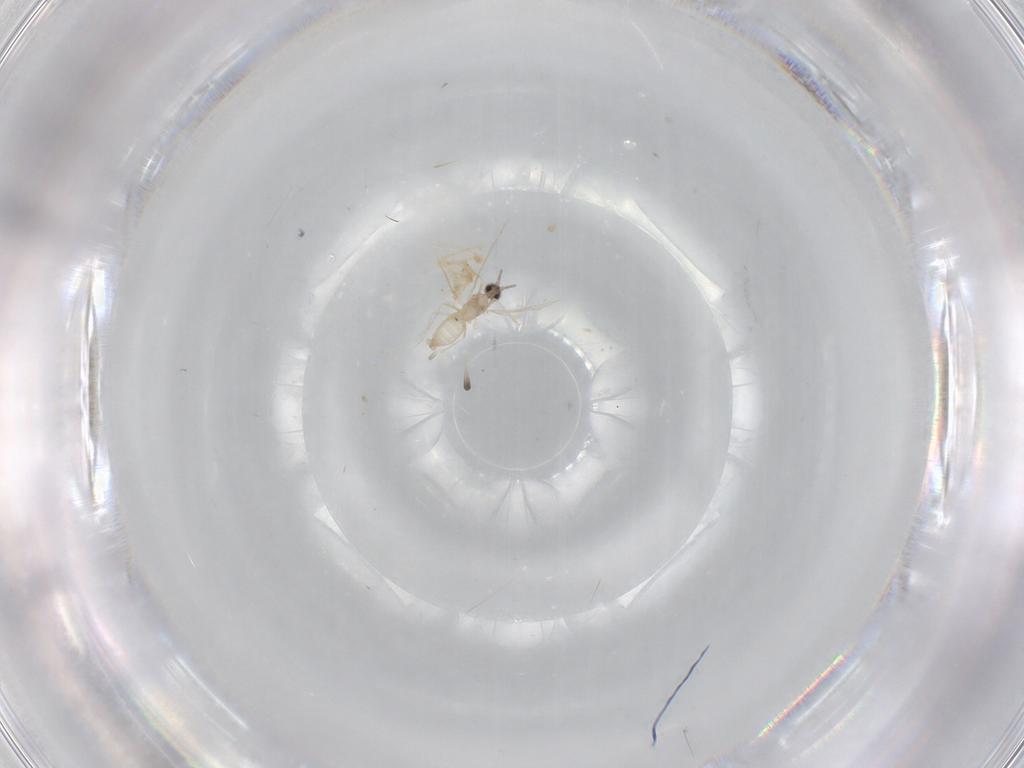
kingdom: Animalia
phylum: Arthropoda
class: Insecta
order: Diptera
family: Cecidomyiidae
